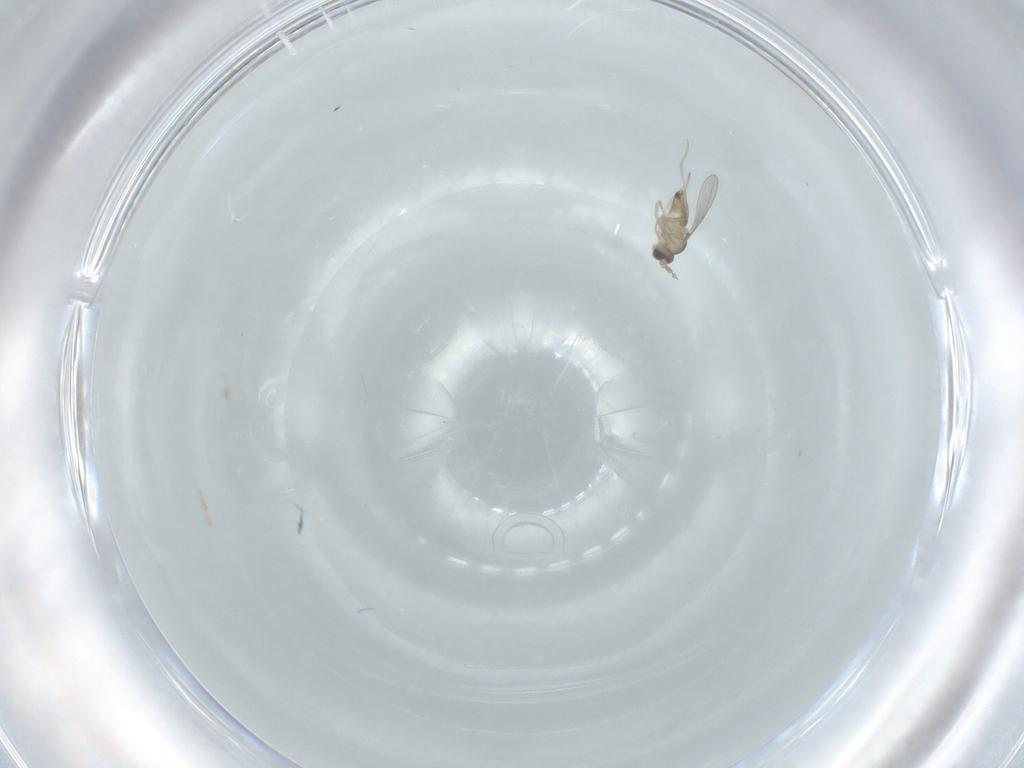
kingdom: Animalia
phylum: Arthropoda
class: Insecta
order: Diptera
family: Cecidomyiidae
